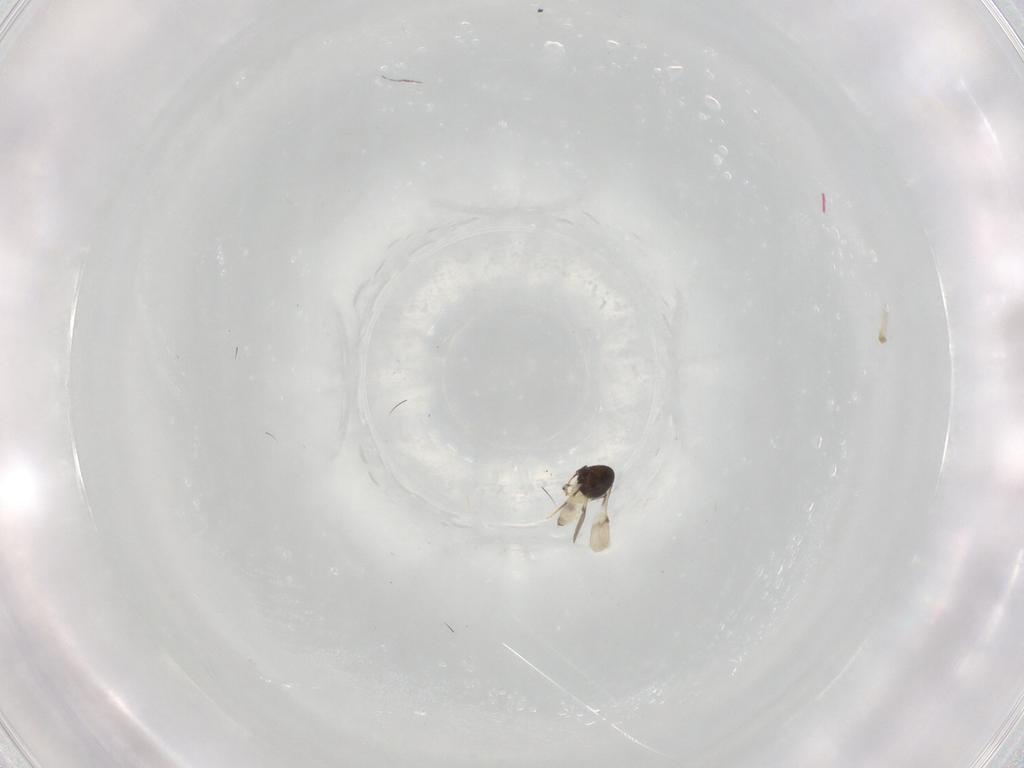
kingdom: Animalia
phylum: Arthropoda
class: Insecta
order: Hymenoptera
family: Scelionidae
